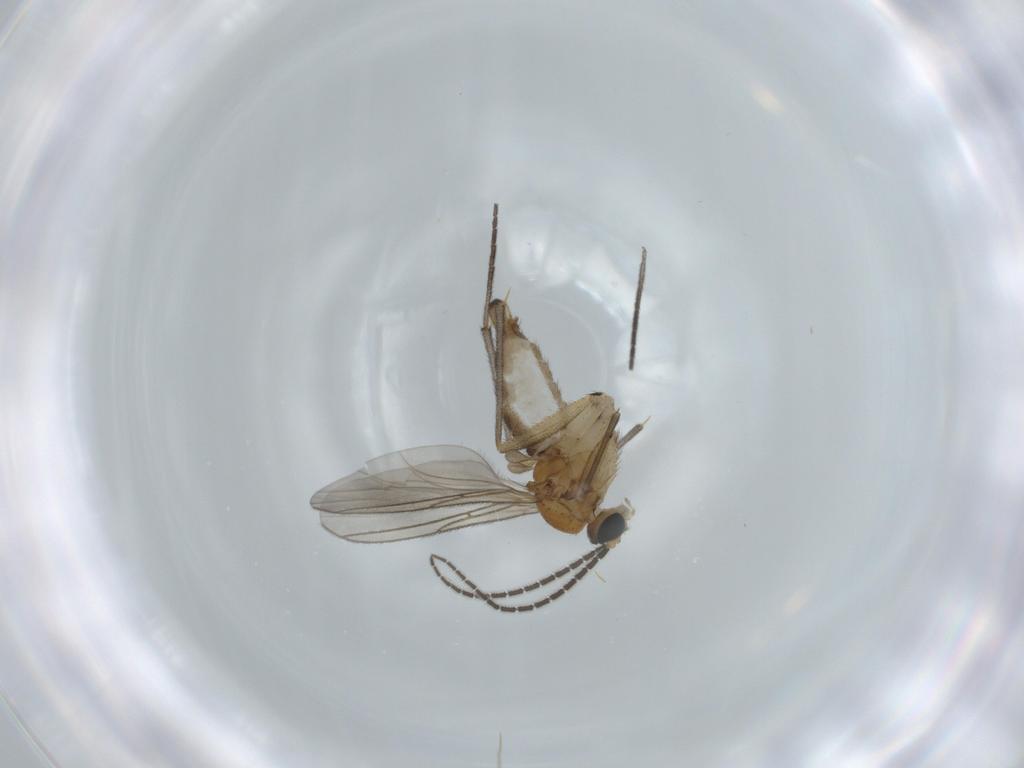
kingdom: Animalia
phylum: Arthropoda
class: Insecta
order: Diptera
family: Sciaridae
